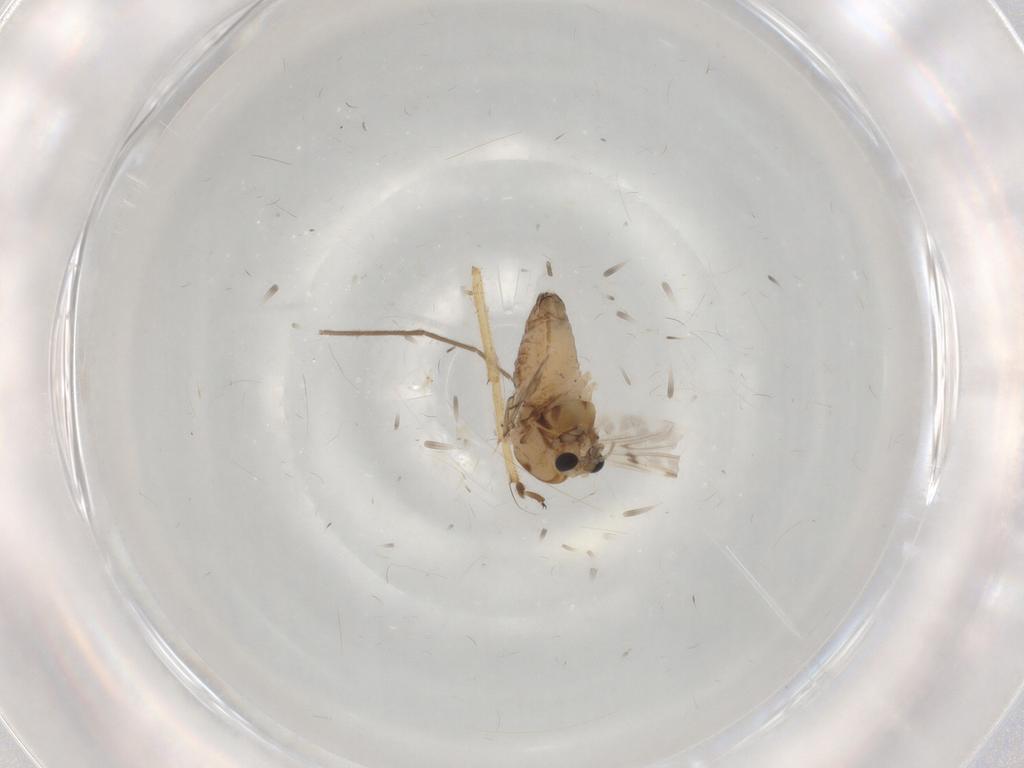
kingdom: Animalia
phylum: Arthropoda
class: Insecta
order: Diptera
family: Chironomidae
